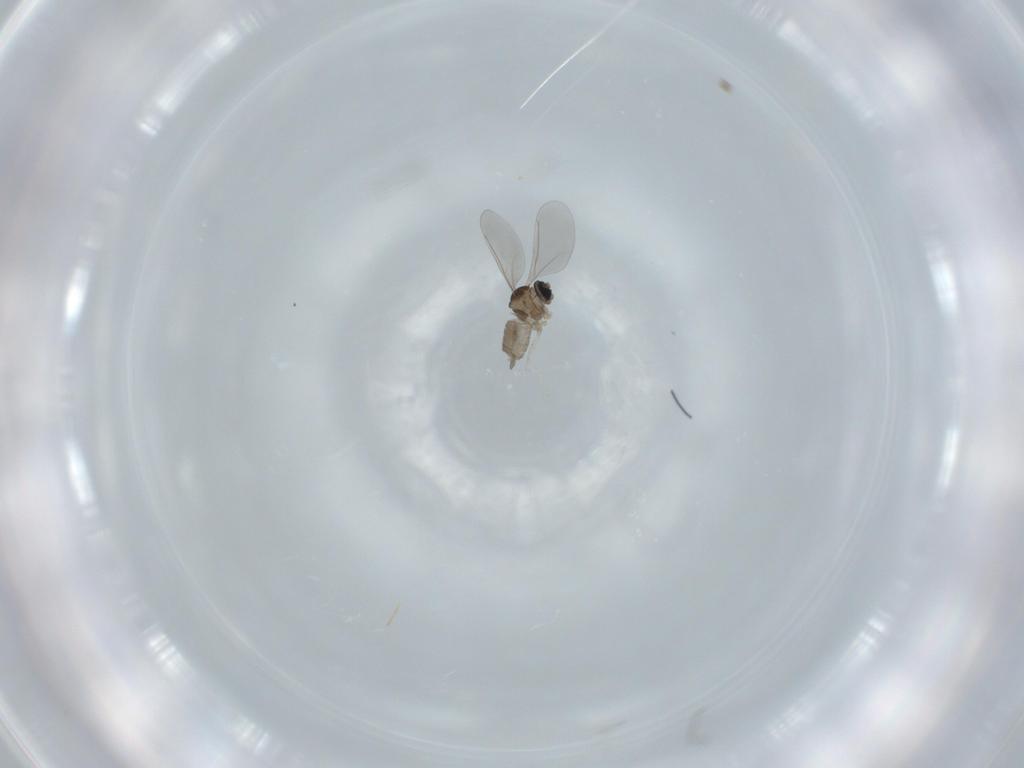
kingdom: Animalia
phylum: Arthropoda
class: Insecta
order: Diptera
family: Cecidomyiidae
